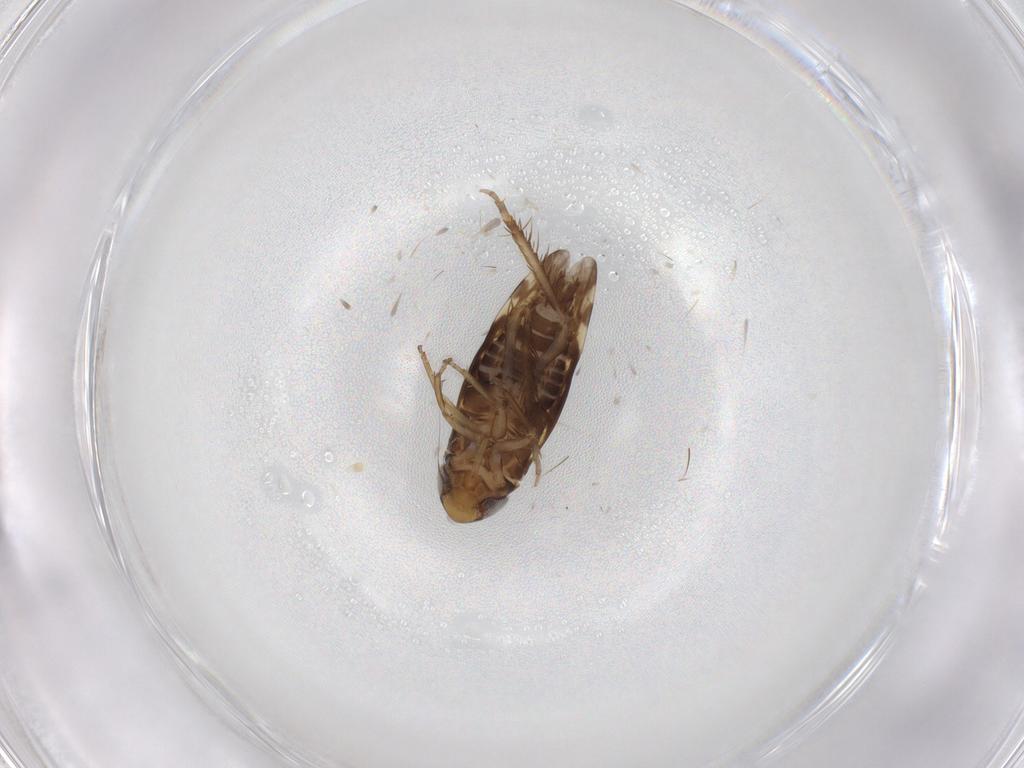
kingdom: Animalia
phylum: Arthropoda
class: Insecta
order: Hemiptera
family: Cicadellidae
